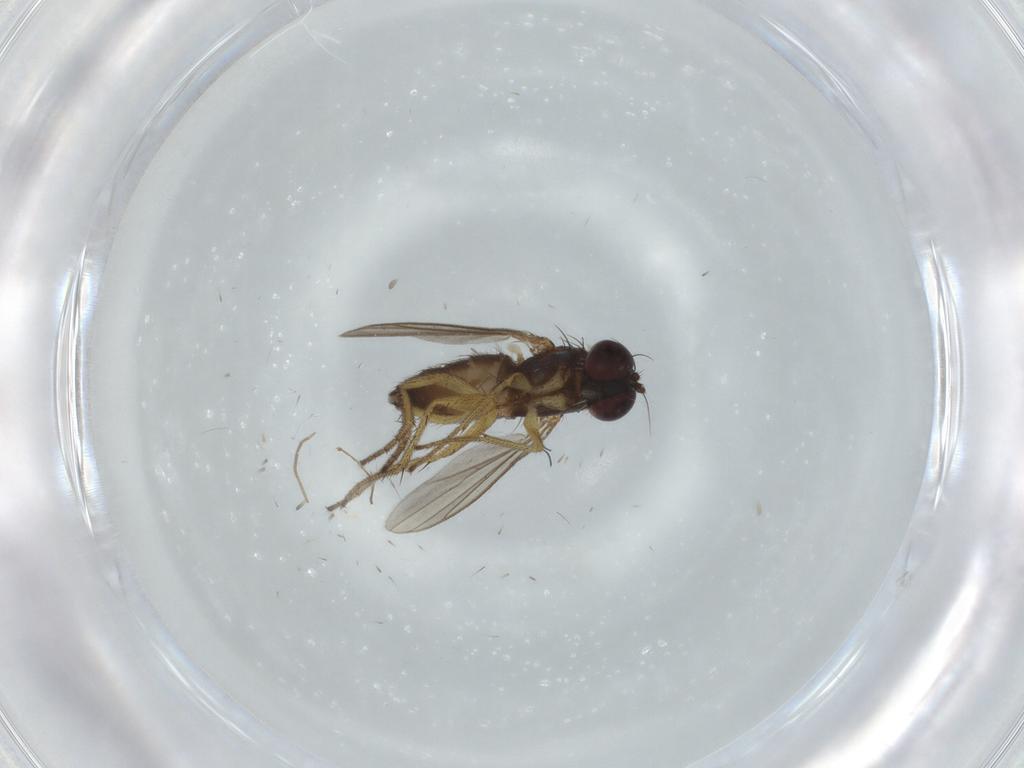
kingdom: Animalia
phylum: Arthropoda
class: Insecta
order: Diptera
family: Dolichopodidae
